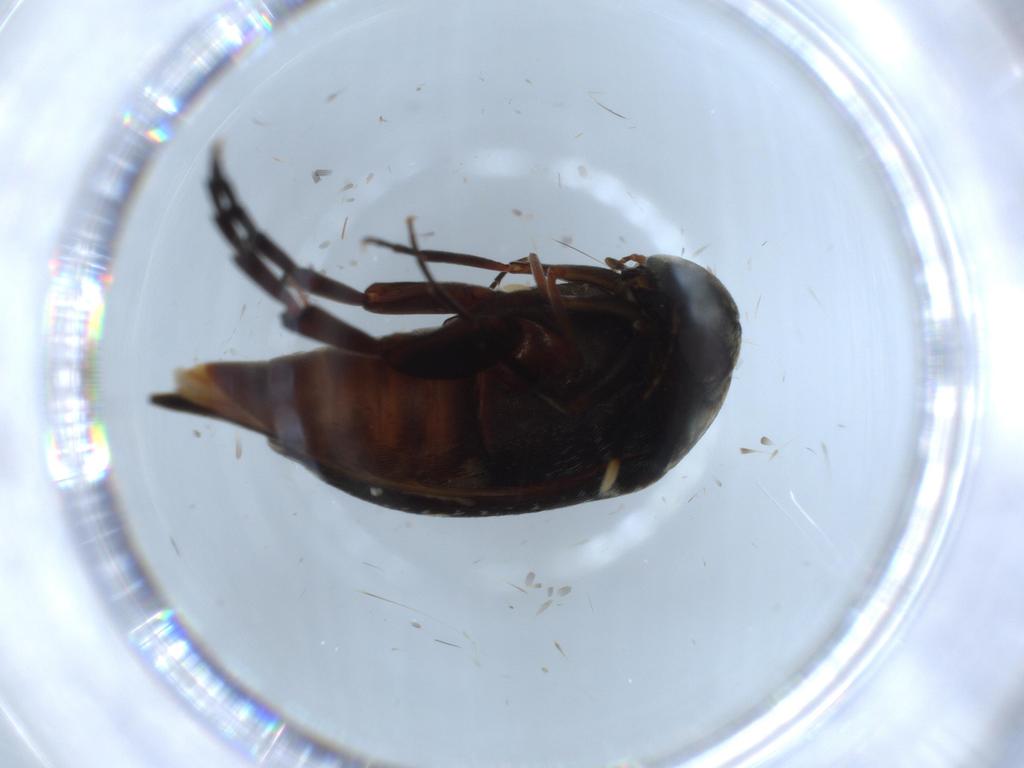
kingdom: Animalia
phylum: Arthropoda
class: Insecta
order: Coleoptera
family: Chrysomelidae
